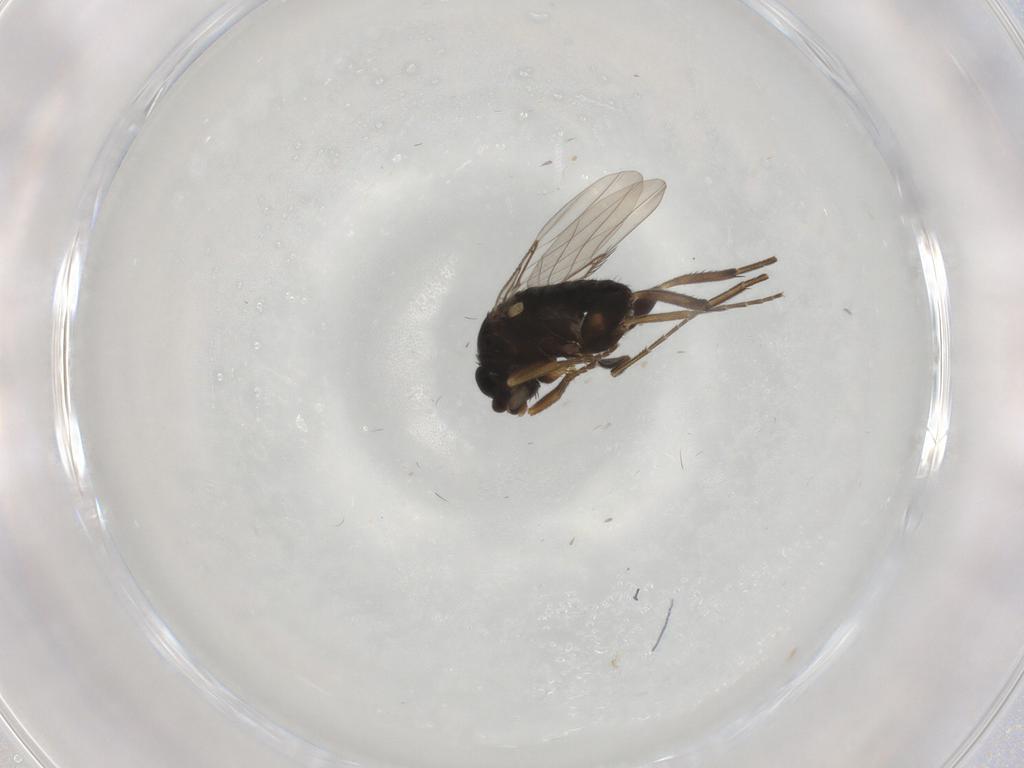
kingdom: Animalia
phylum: Arthropoda
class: Insecta
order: Diptera
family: Phoridae
